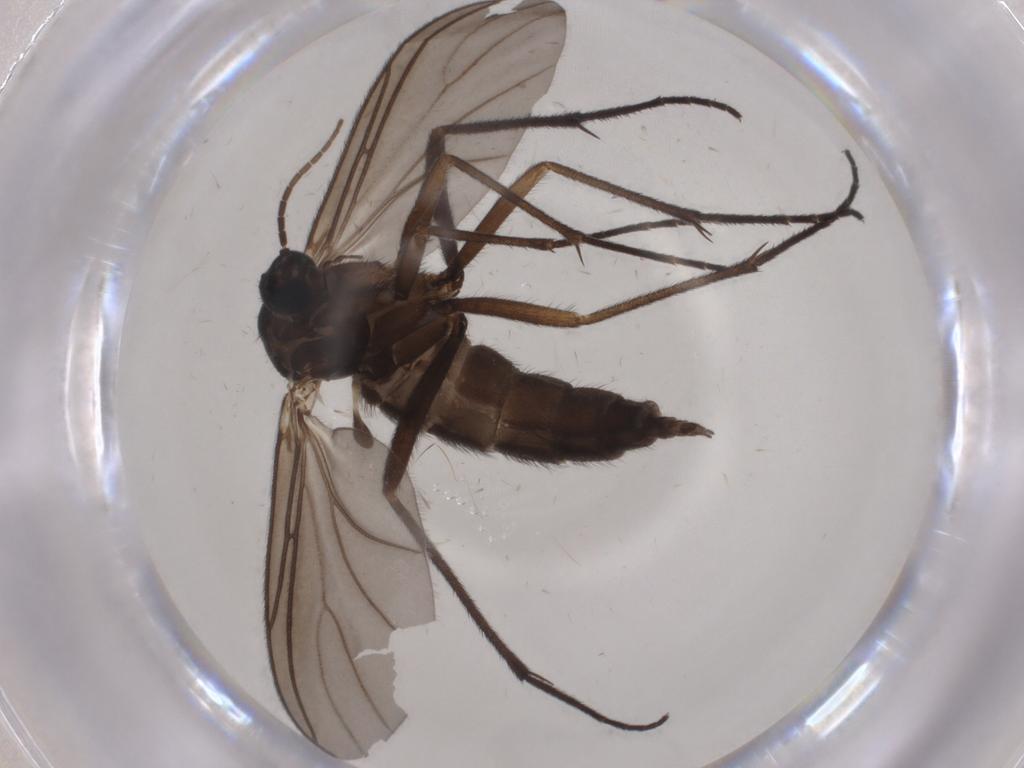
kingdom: Animalia
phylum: Arthropoda
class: Insecta
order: Diptera
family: Sciaridae
